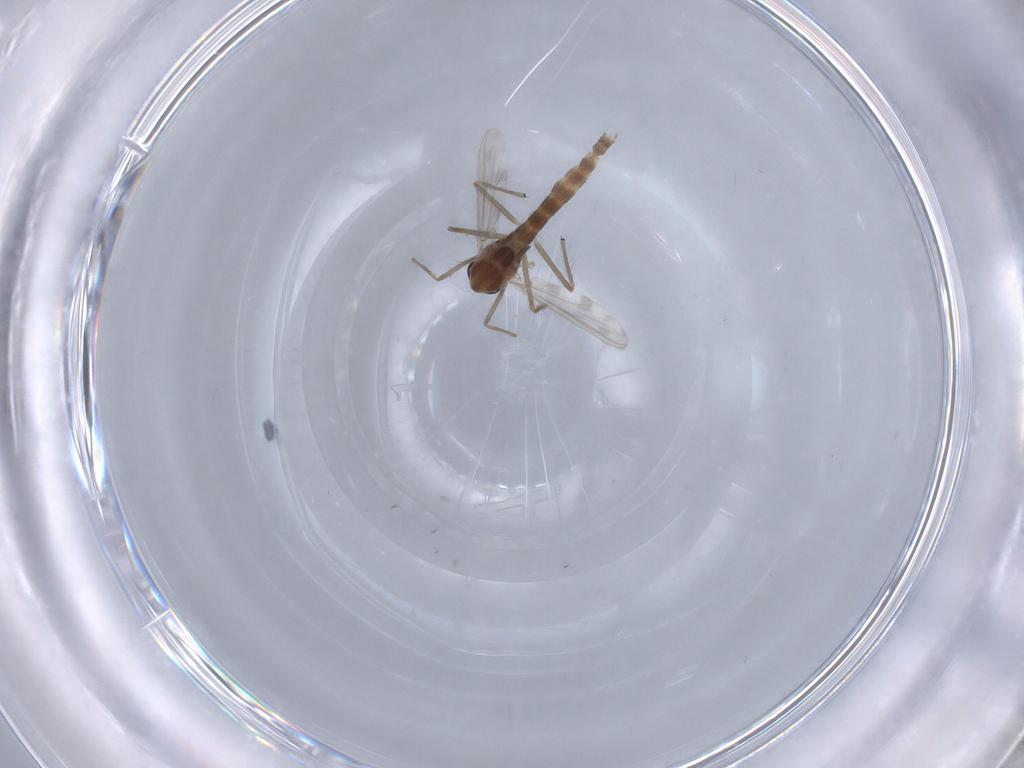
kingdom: Animalia
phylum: Arthropoda
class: Insecta
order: Diptera
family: Chironomidae
